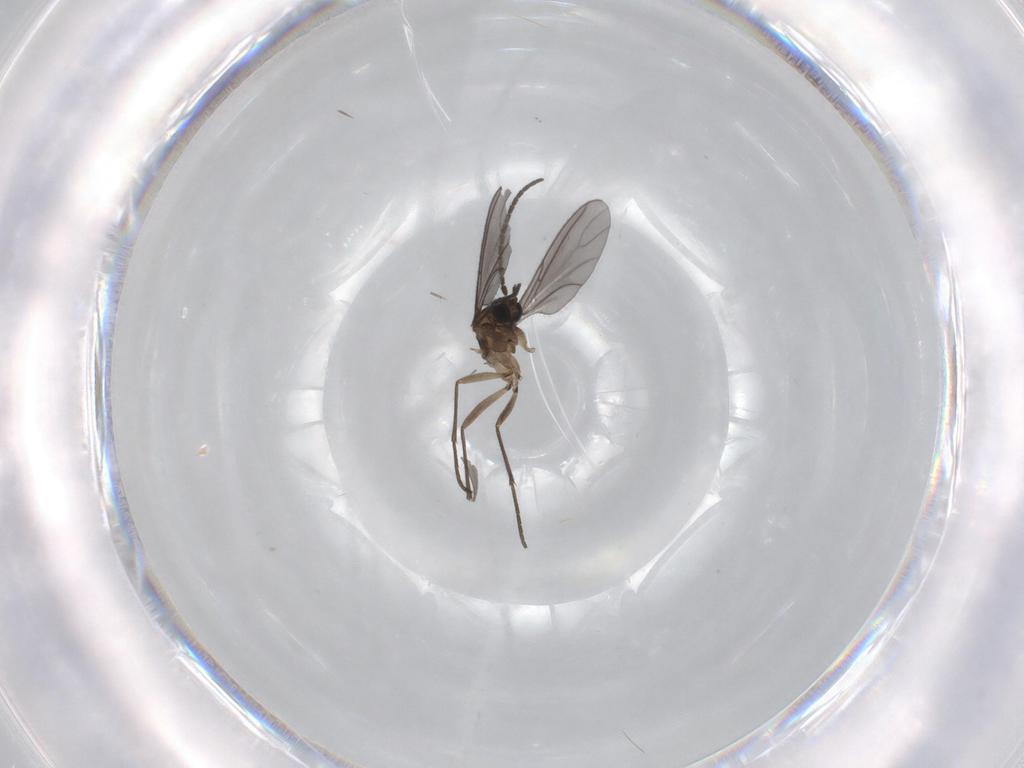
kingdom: Animalia
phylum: Arthropoda
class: Insecta
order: Diptera
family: Sciaridae
